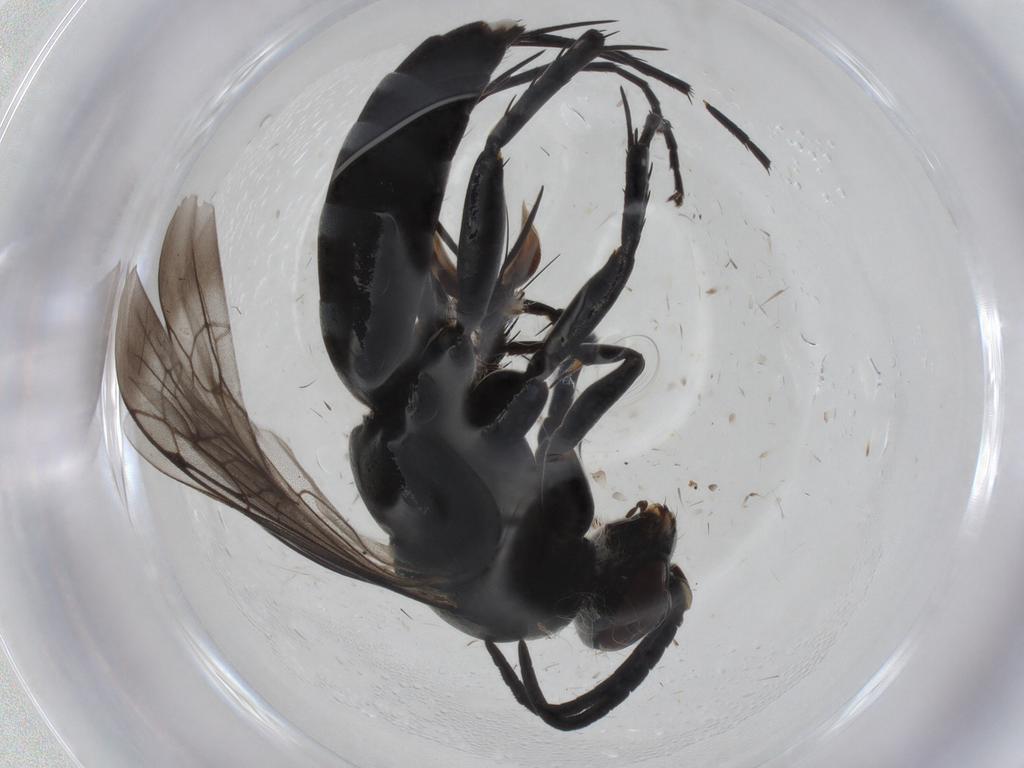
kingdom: Animalia
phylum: Arthropoda
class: Insecta
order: Hymenoptera
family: Pompilidae
